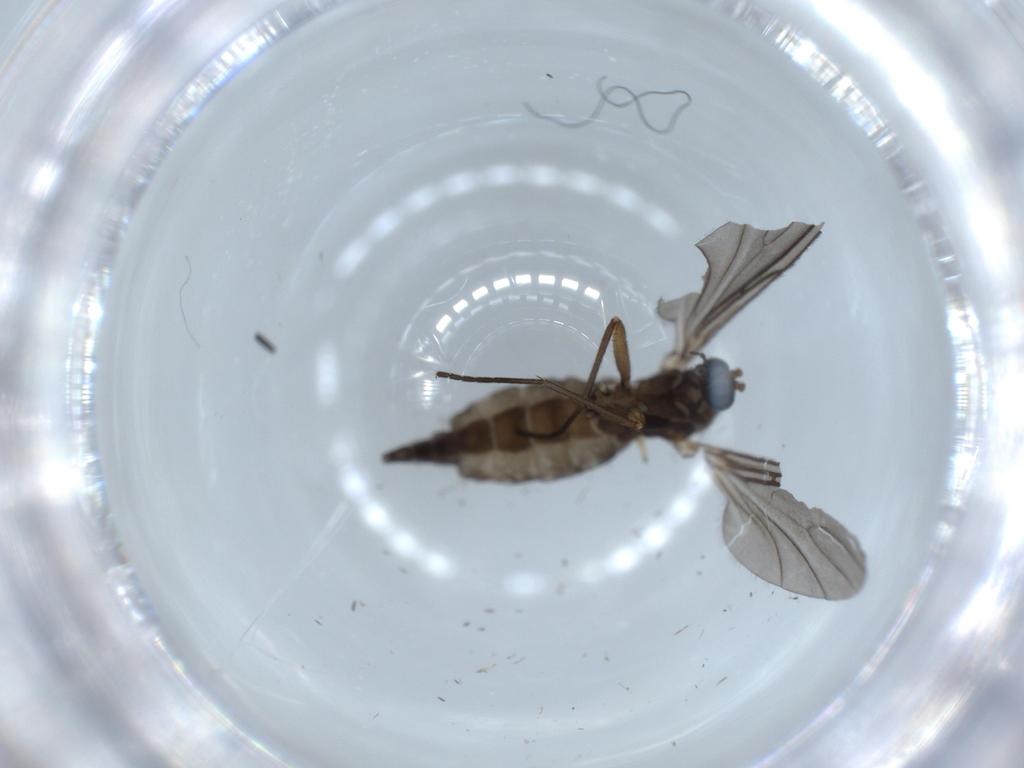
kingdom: Animalia
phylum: Arthropoda
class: Insecta
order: Diptera
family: Sciaridae
